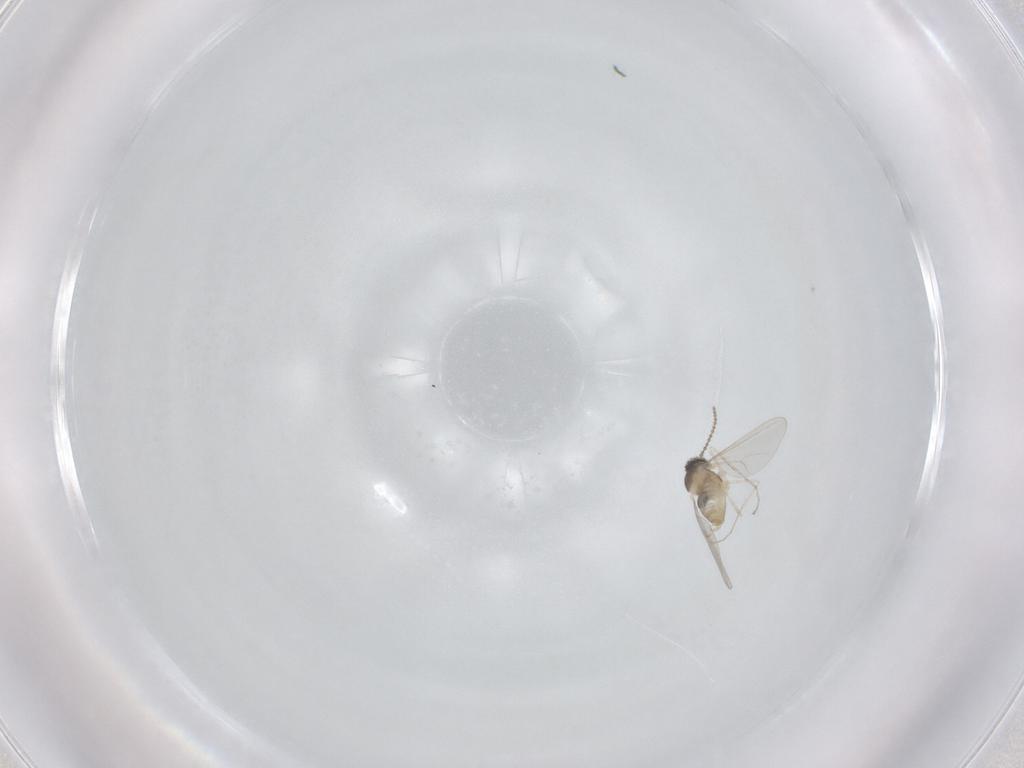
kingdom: Animalia
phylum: Arthropoda
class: Insecta
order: Diptera
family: Cecidomyiidae
